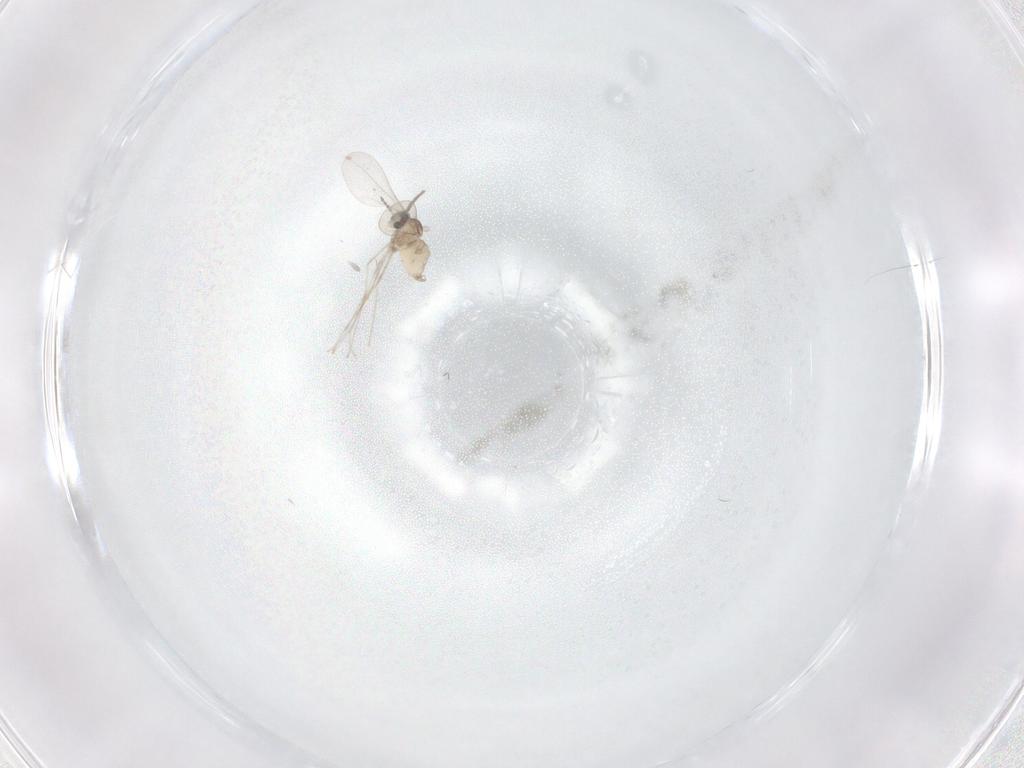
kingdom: Animalia
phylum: Arthropoda
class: Insecta
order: Diptera
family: Cecidomyiidae
